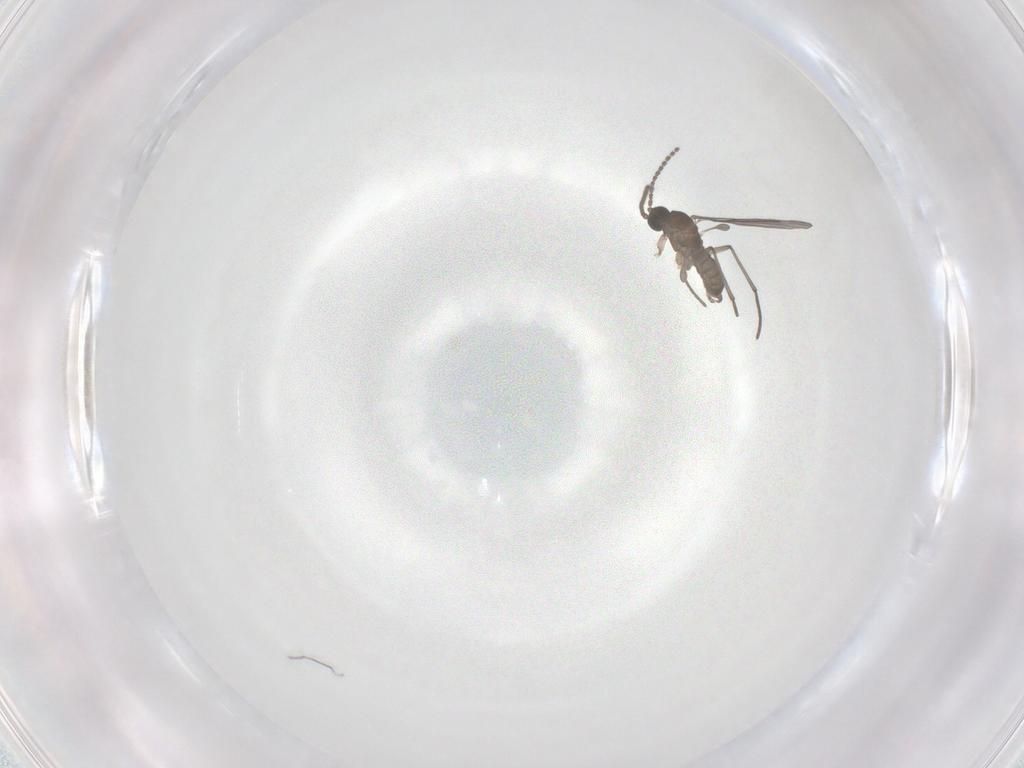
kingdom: Animalia
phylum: Arthropoda
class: Insecta
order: Diptera
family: Sciaridae
